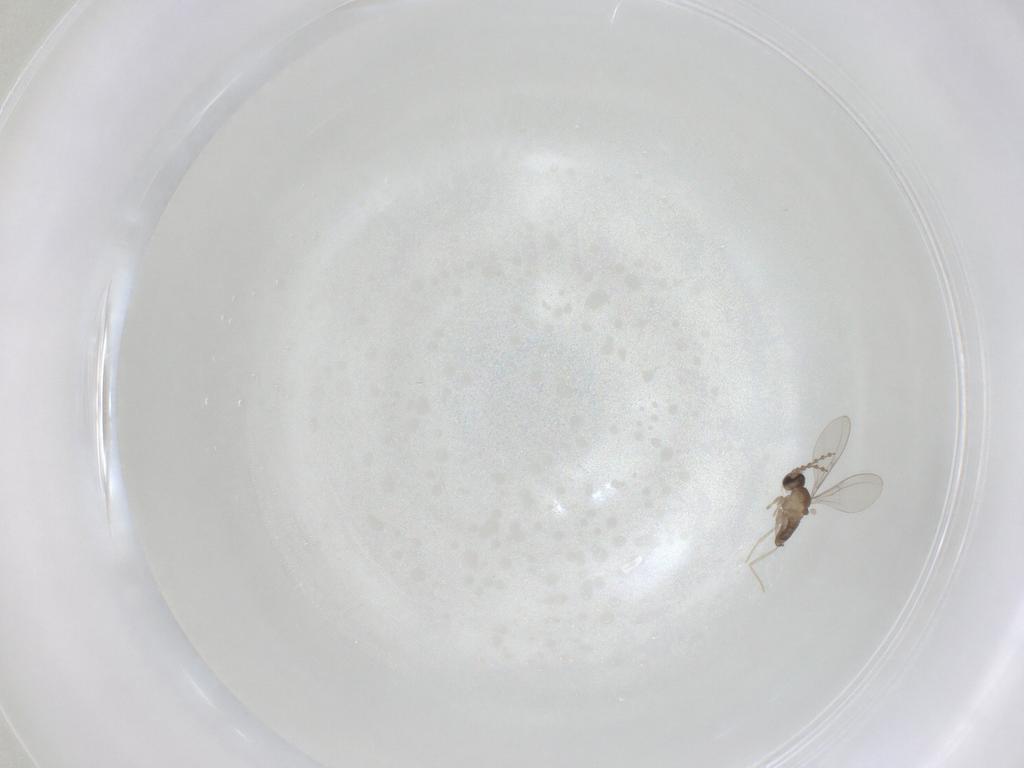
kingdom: Animalia
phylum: Arthropoda
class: Insecta
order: Diptera
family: Cecidomyiidae
